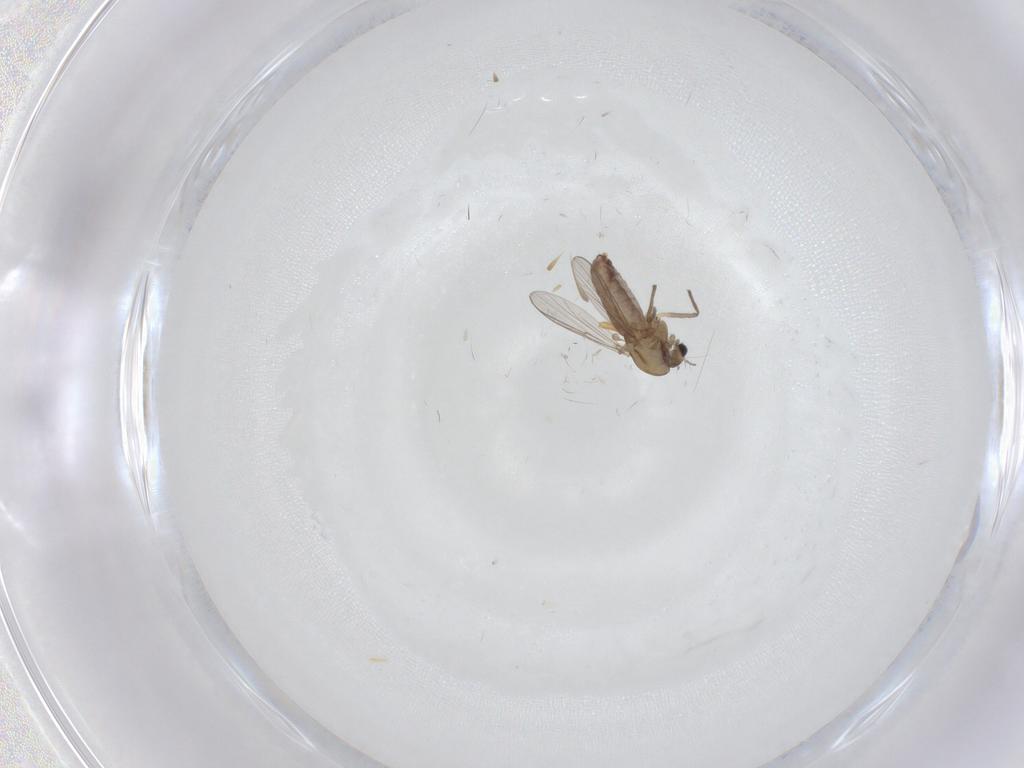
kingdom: Animalia
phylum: Arthropoda
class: Insecta
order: Diptera
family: Chironomidae
